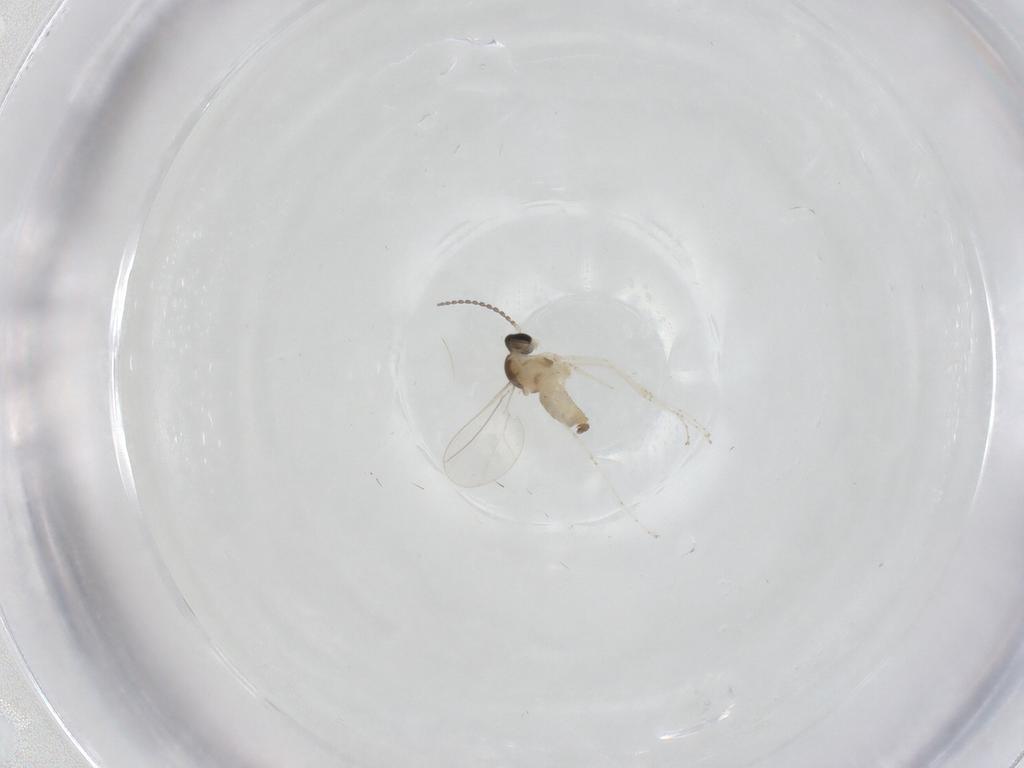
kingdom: Animalia
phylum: Arthropoda
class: Insecta
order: Diptera
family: Cecidomyiidae
